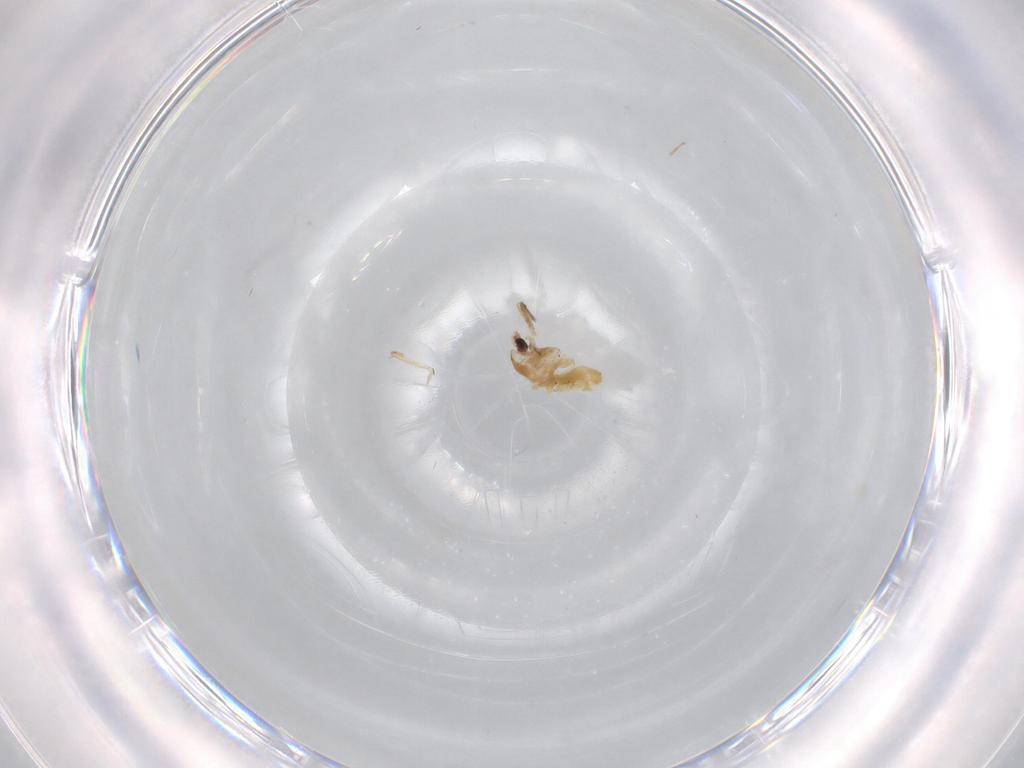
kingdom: Animalia
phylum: Arthropoda
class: Insecta
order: Diptera
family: Chironomidae
